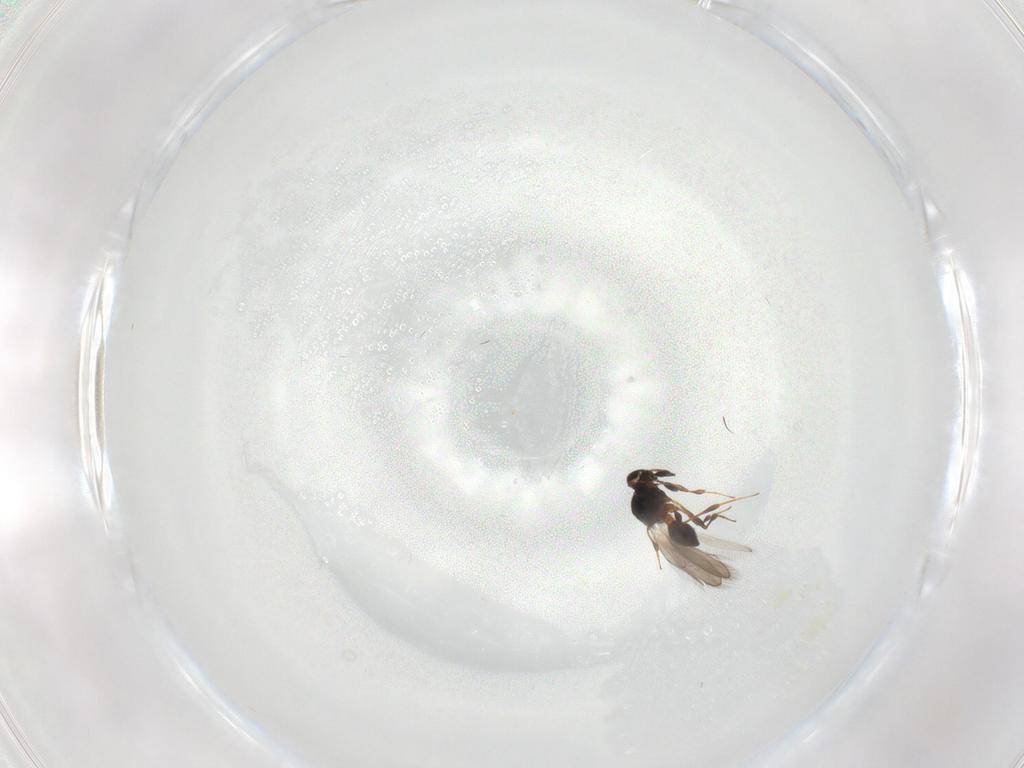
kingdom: Animalia
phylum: Arthropoda
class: Insecta
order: Hymenoptera
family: Platygastridae
